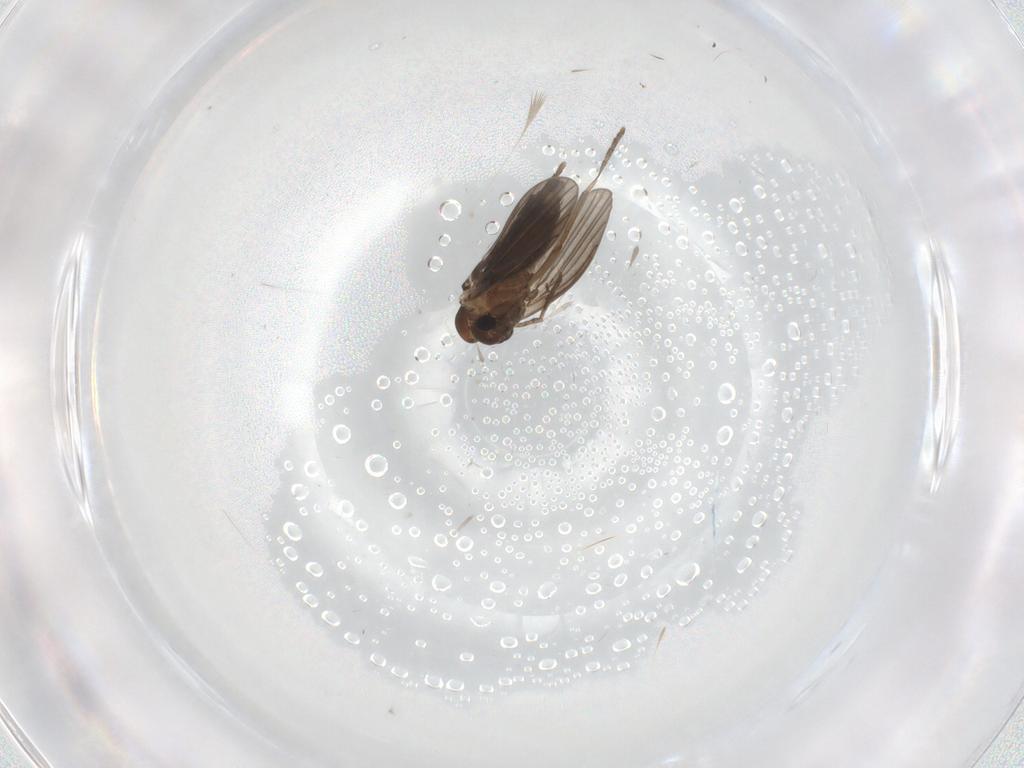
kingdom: Animalia
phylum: Arthropoda
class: Insecta
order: Diptera
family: Chironomidae
